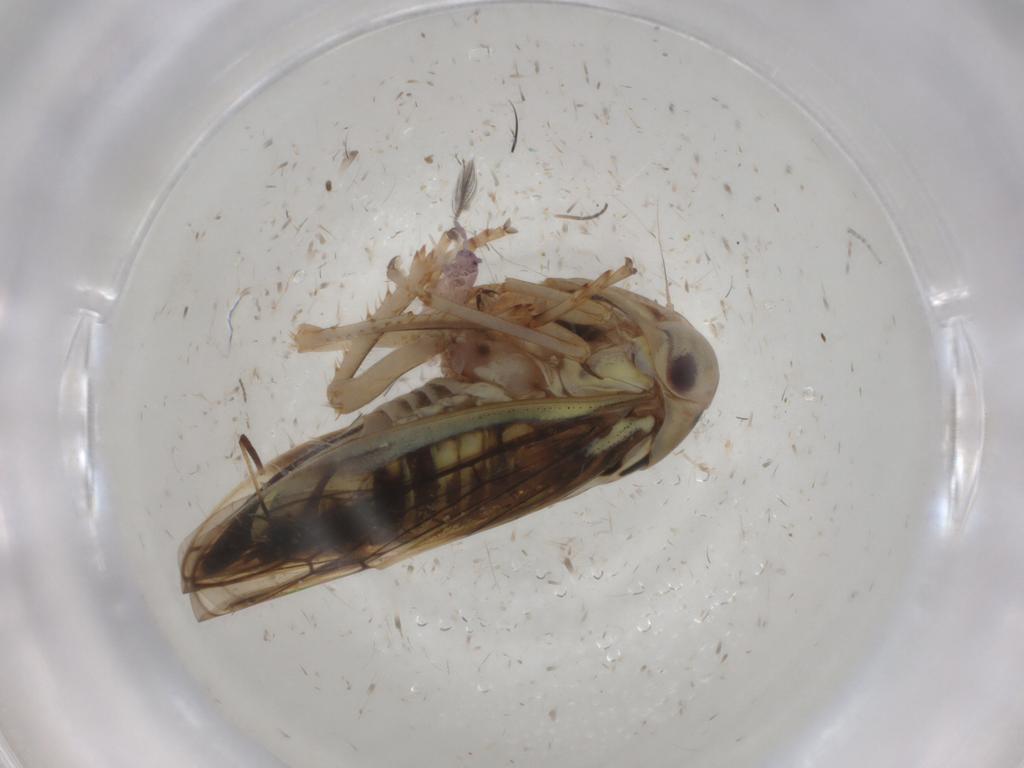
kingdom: Animalia
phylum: Arthropoda
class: Insecta
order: Hemiptera
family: Cicadellidae
